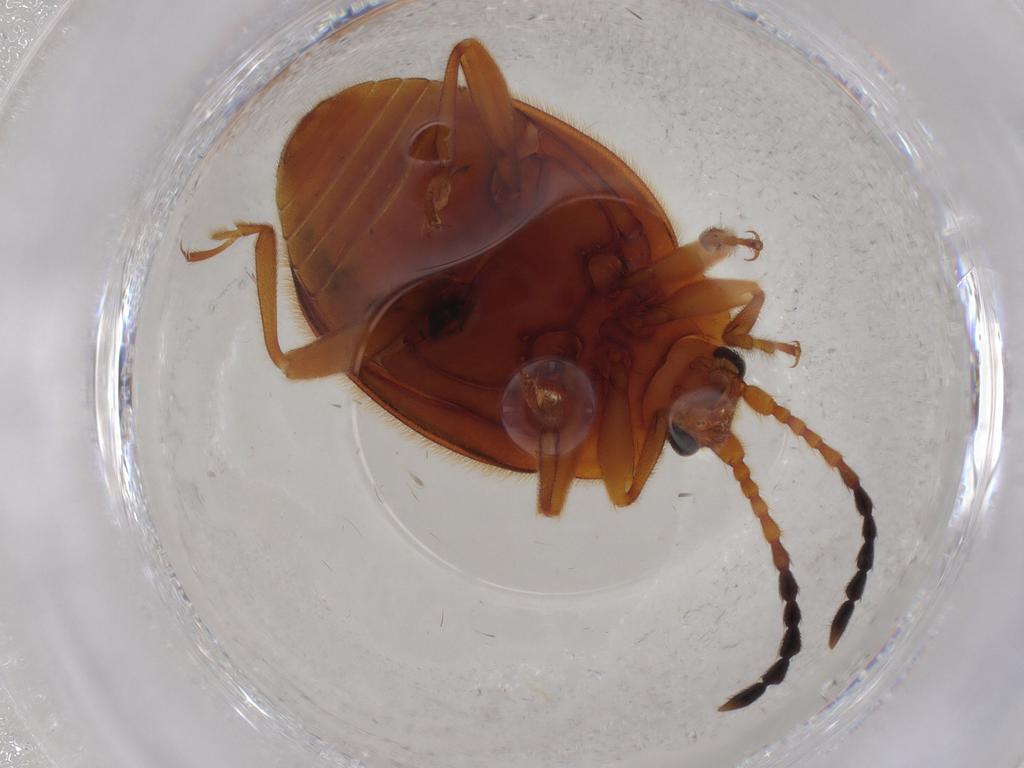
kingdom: Animalia
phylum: Arthropoda
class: Insecta
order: Coleoptera
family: Endomychidae
